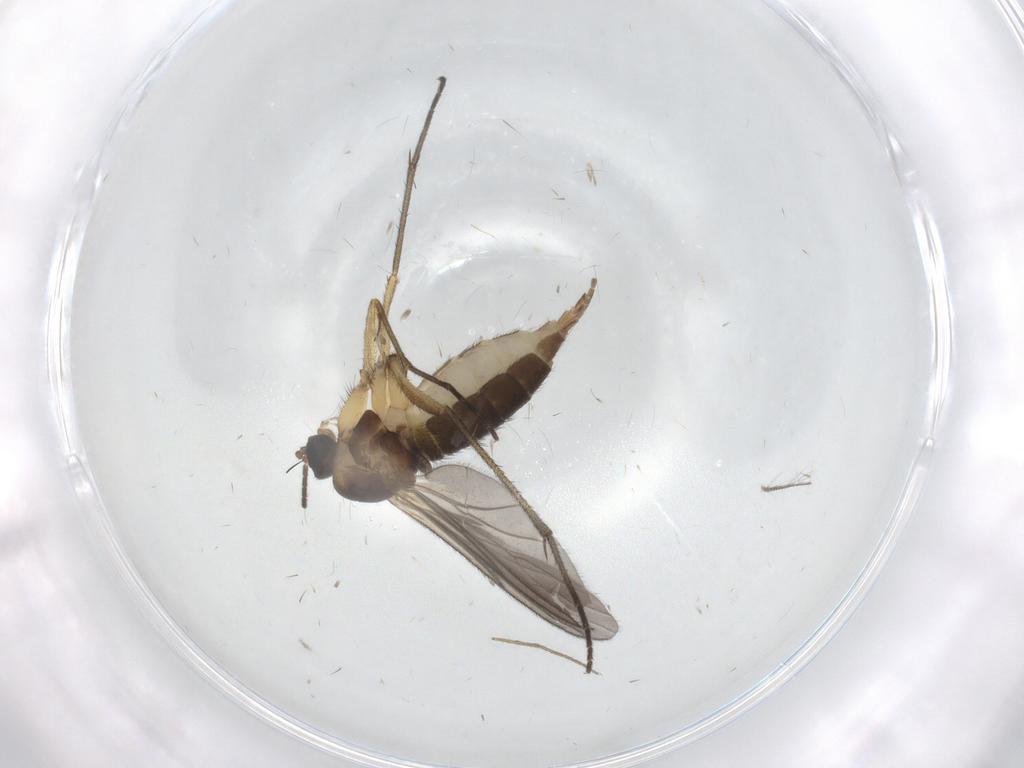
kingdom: Animalia
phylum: Arthropoda
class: Insecta
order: Diptera
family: Sciaridae
